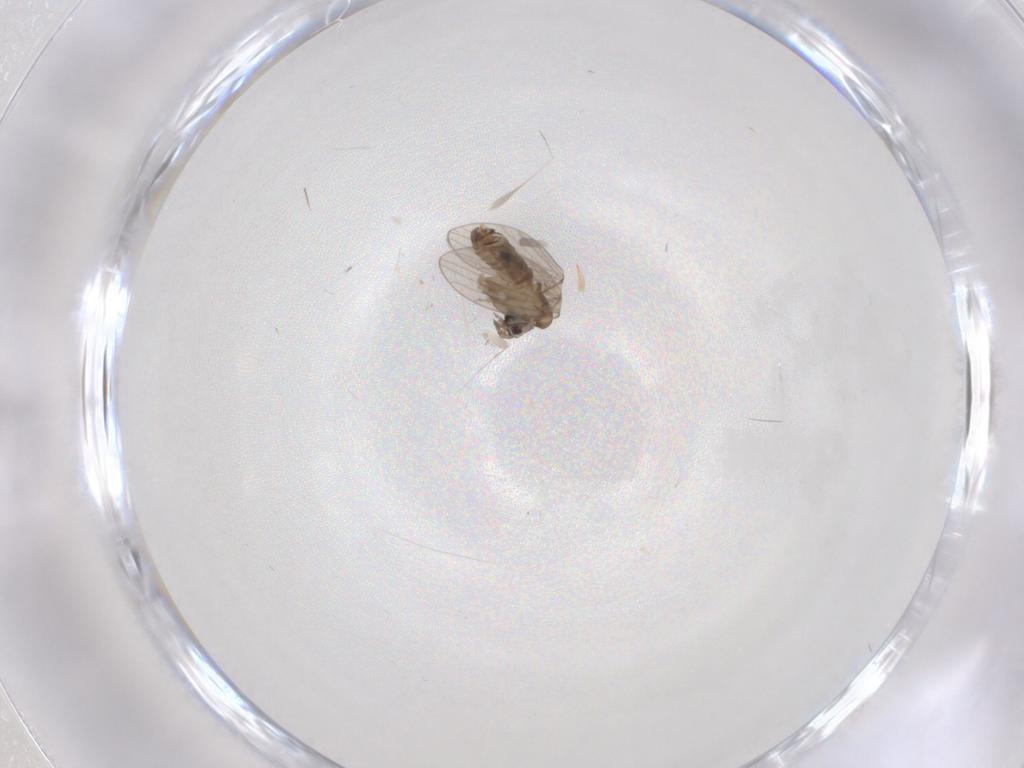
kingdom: Animalia
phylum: Arthropoda
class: Insecta
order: Diptera
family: Psychodidae
